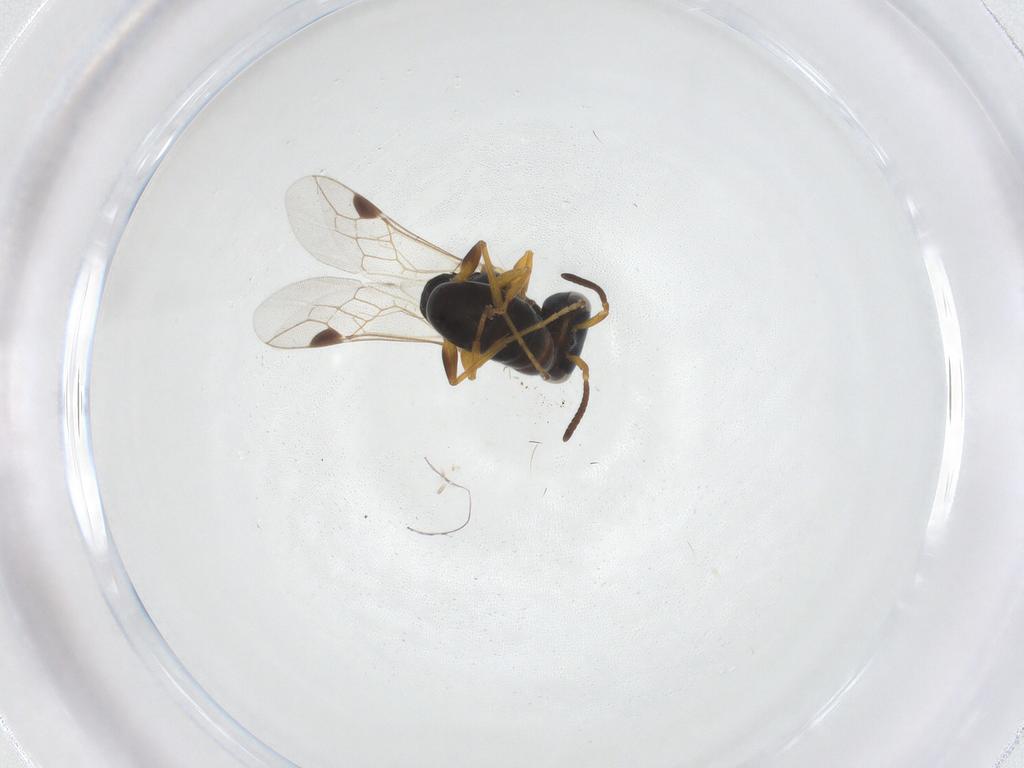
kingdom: Animalia
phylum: Arthropoda
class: Insecta
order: Hymenoptera
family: Crabronidae
